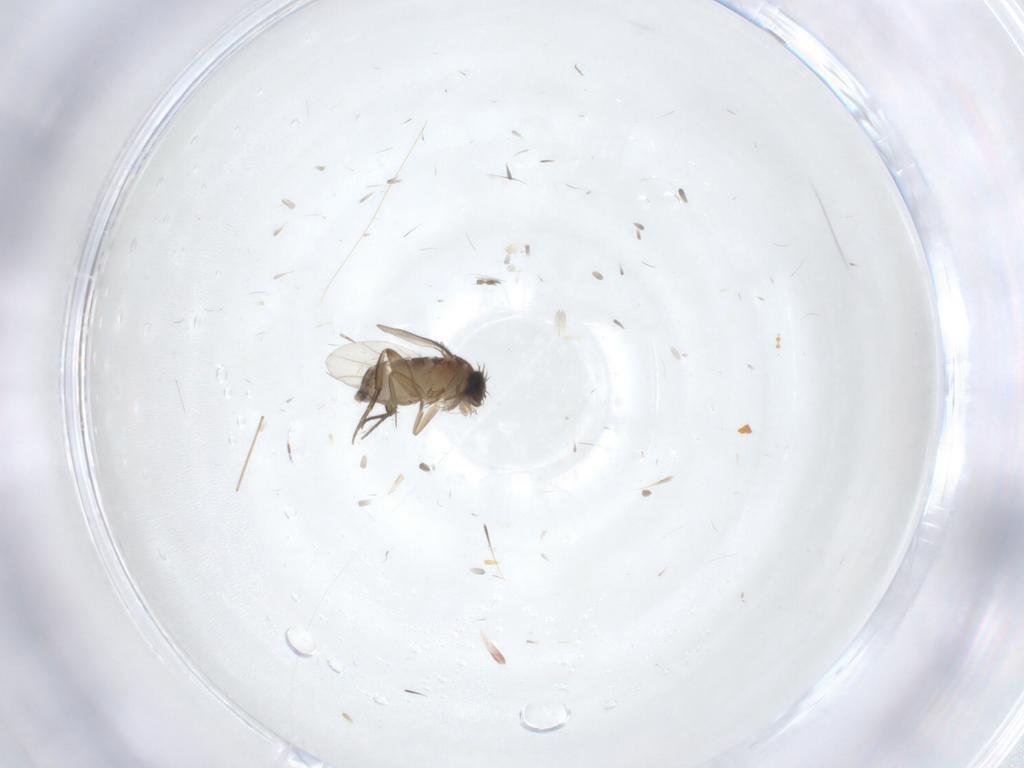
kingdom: Animalia
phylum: Arthropoda
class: Insecta
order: Diptera
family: Phoridae
